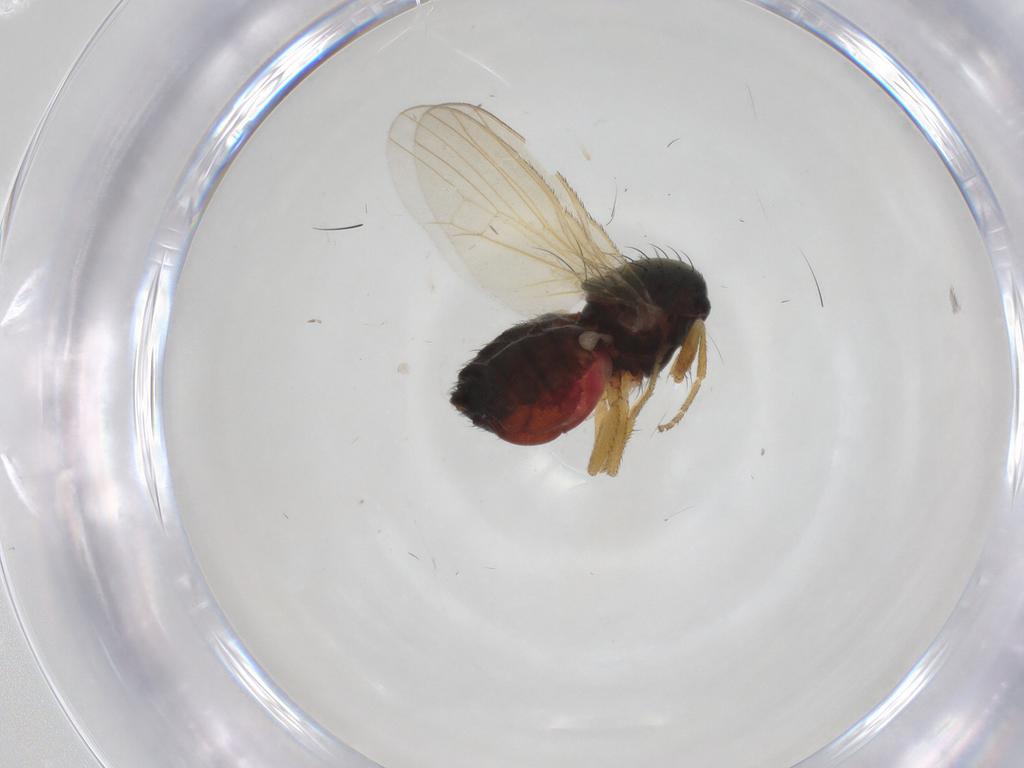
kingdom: Animalia
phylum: Arthropoda
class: Insecta
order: Diptera
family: Heleomyzidae
